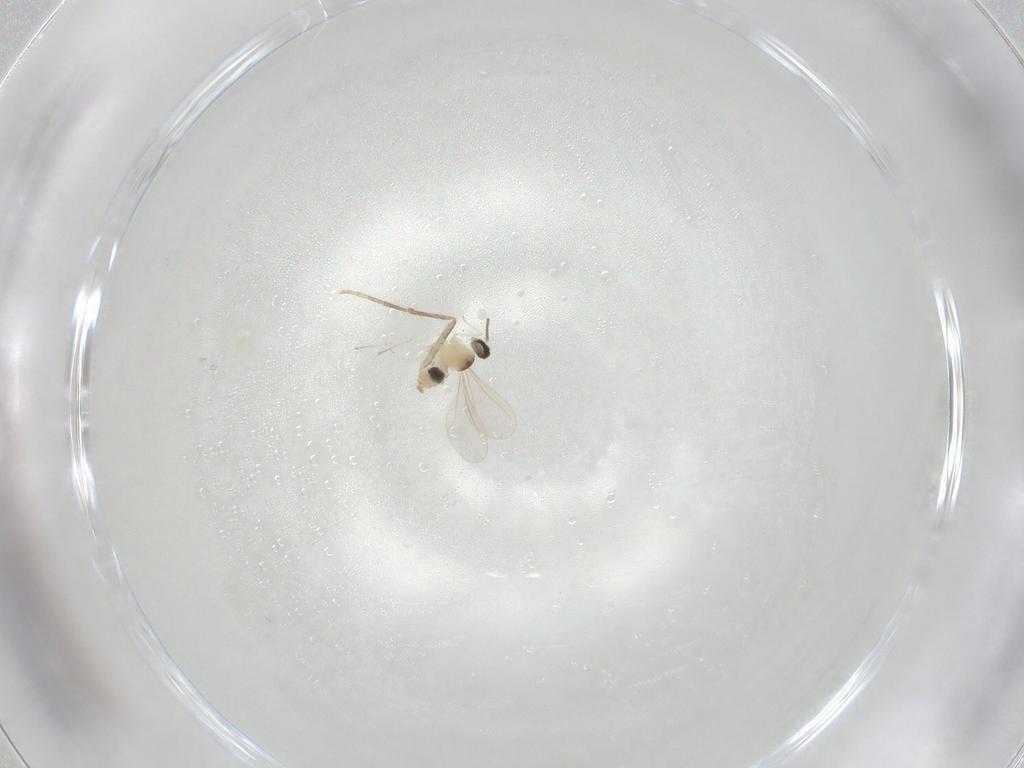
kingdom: Animalia
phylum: Arthropoda
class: Insecta
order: Diptera
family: Cecidomyiidae
